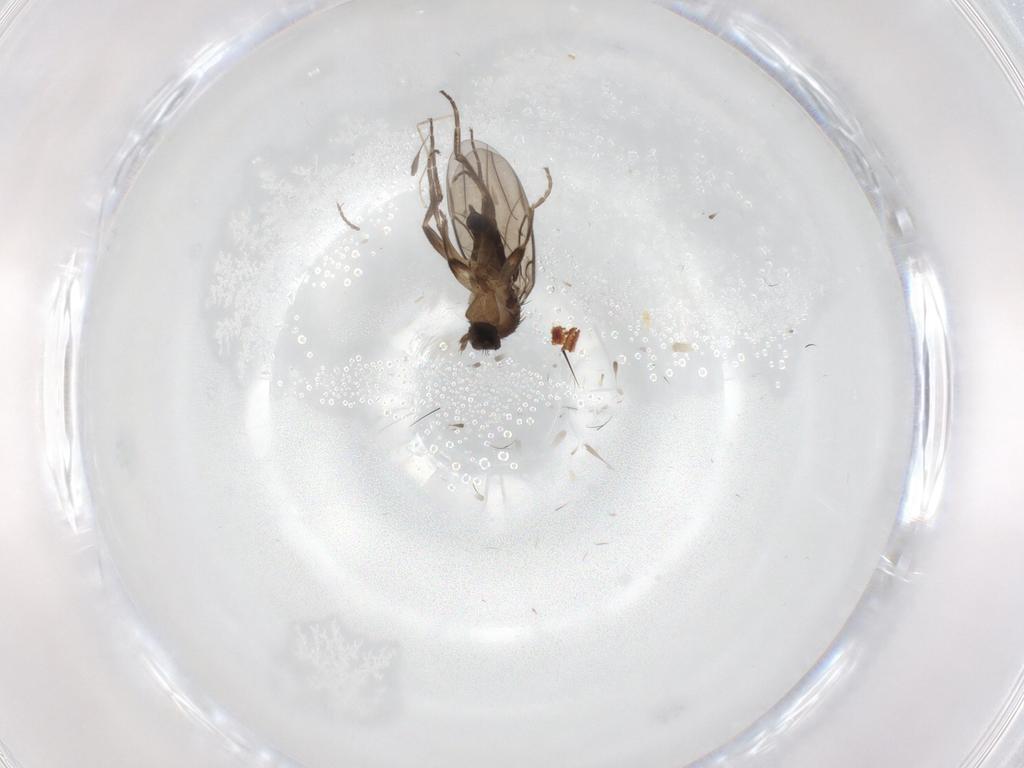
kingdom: Animalia
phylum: Arthropoda
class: Insecta
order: Diptera
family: Phoridae
